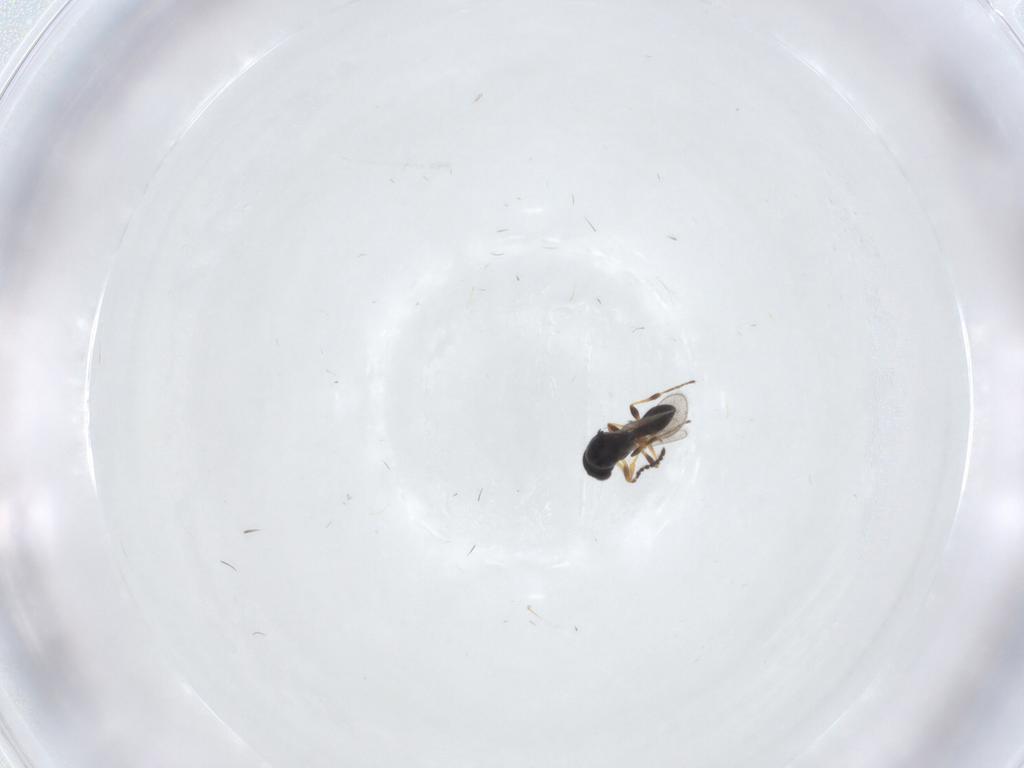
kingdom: Animalia
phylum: Arthropoda
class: Insecta
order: Hymenoptera
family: Platygastridae
